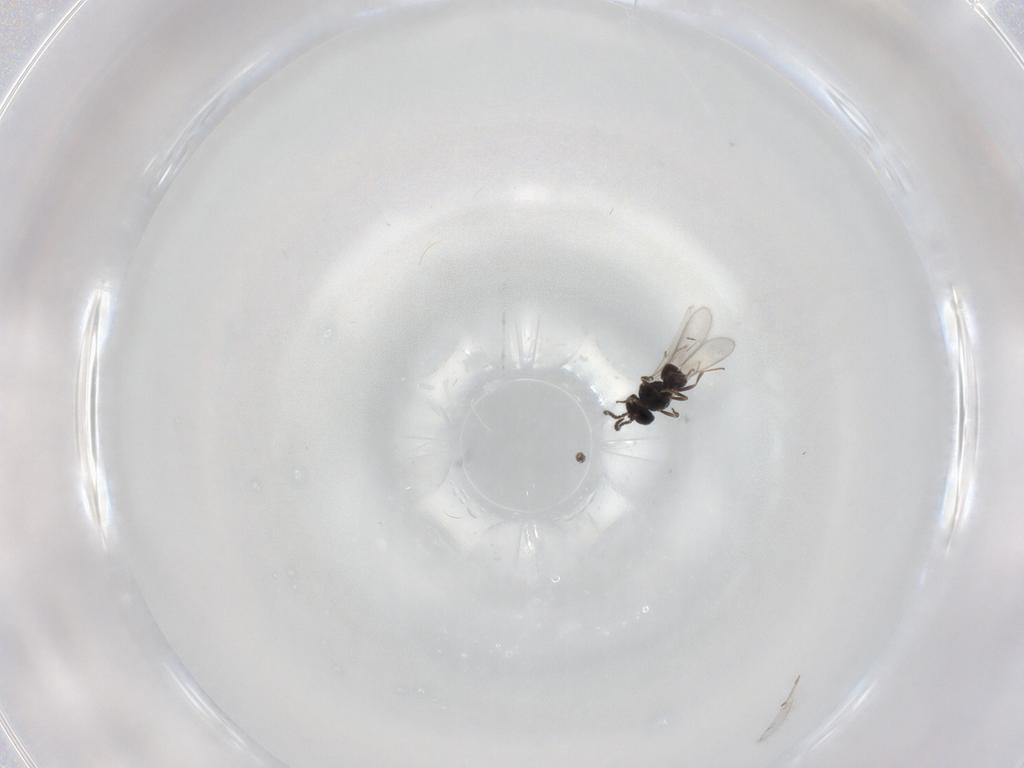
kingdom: Animalia
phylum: Arthropoda
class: Insecta
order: Hymenoptera
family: Scelionidae
